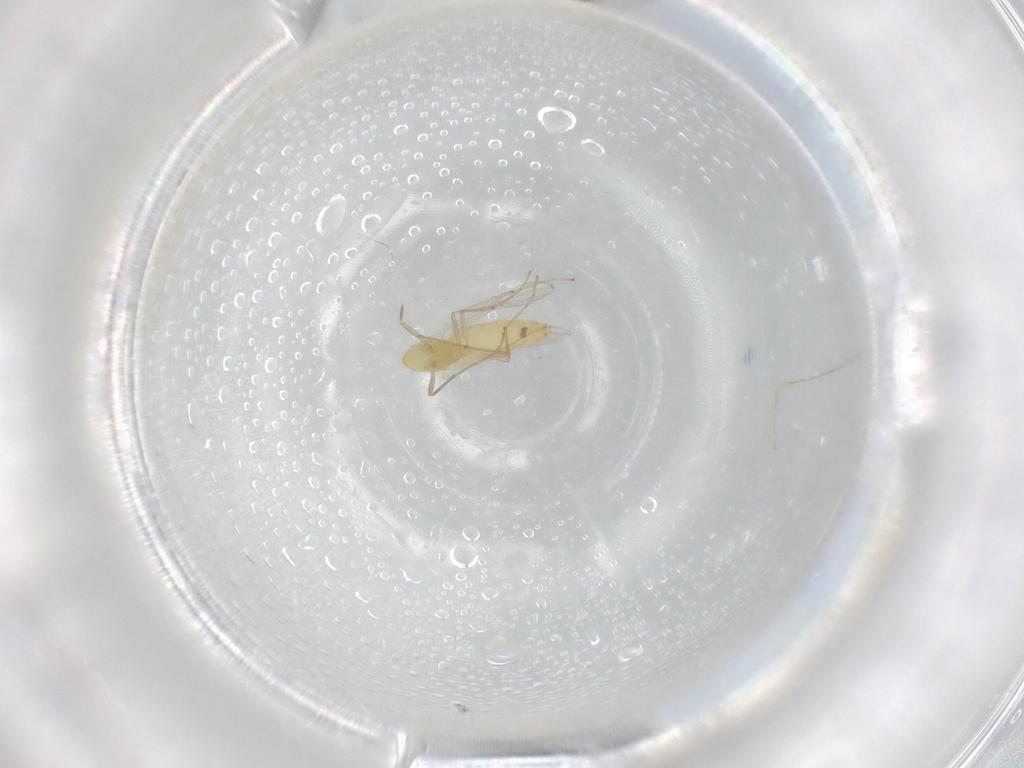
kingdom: Animalia
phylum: Arthropoda
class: Insecta
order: Diptera
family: Chironomidae
